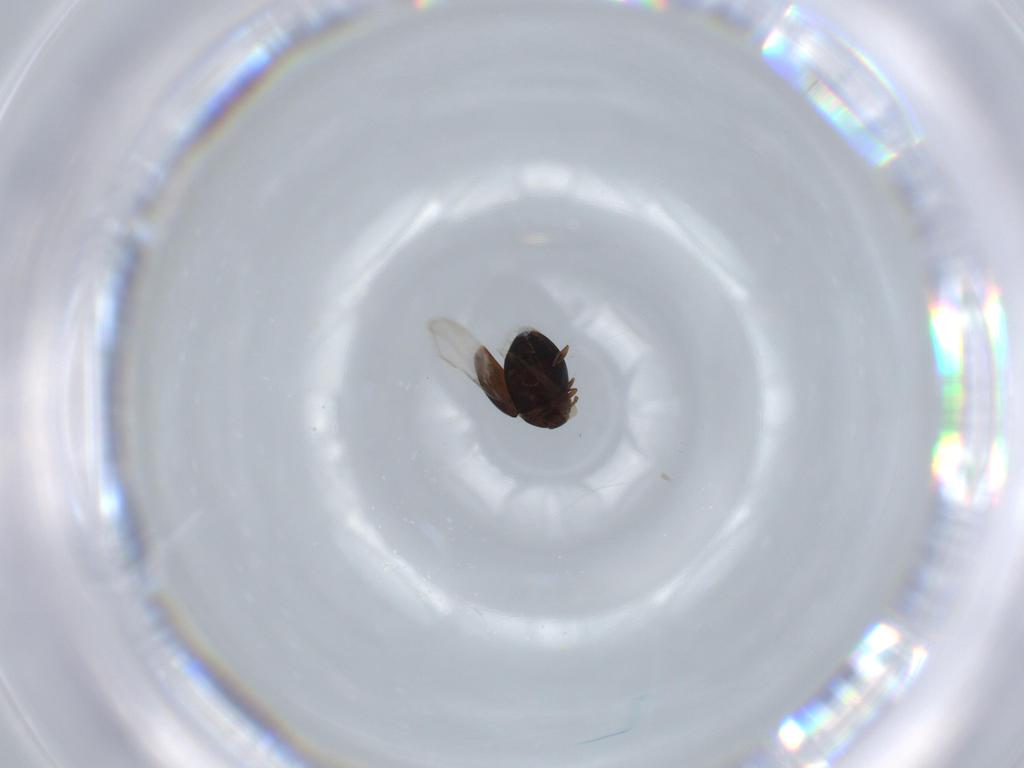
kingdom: Animalia
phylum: Arthropoda
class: Insecta
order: Coleoptera
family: Corylophidae
